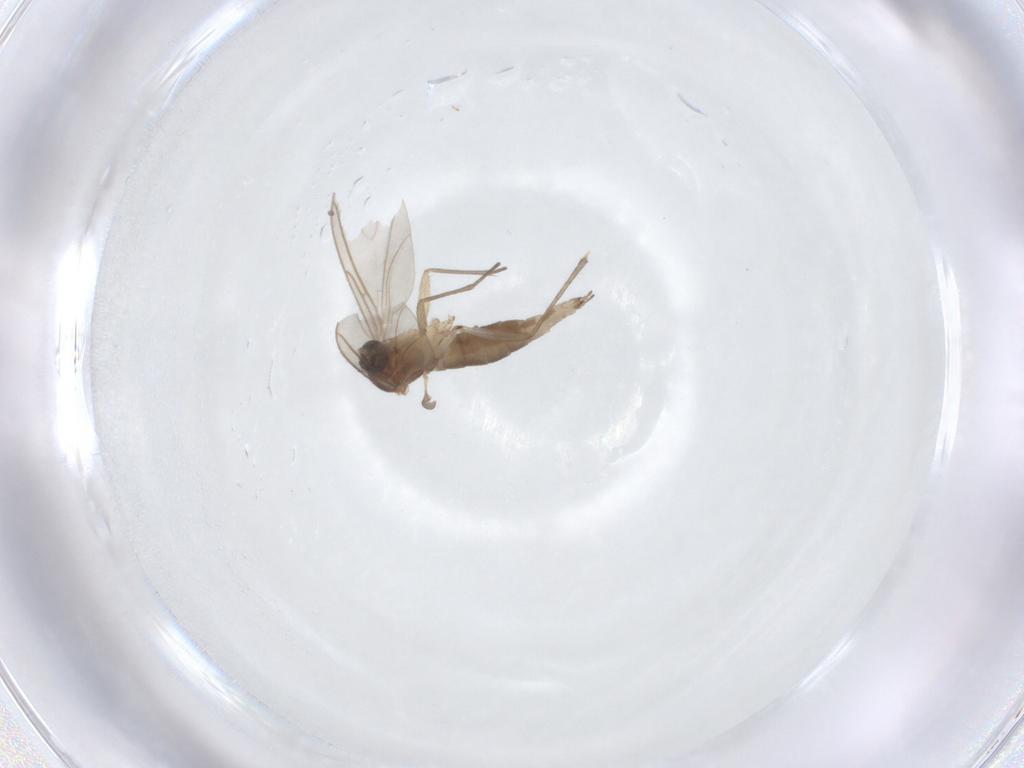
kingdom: Animalia
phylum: Arthropoda
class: Insecta
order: Diptera
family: Sciaridae
